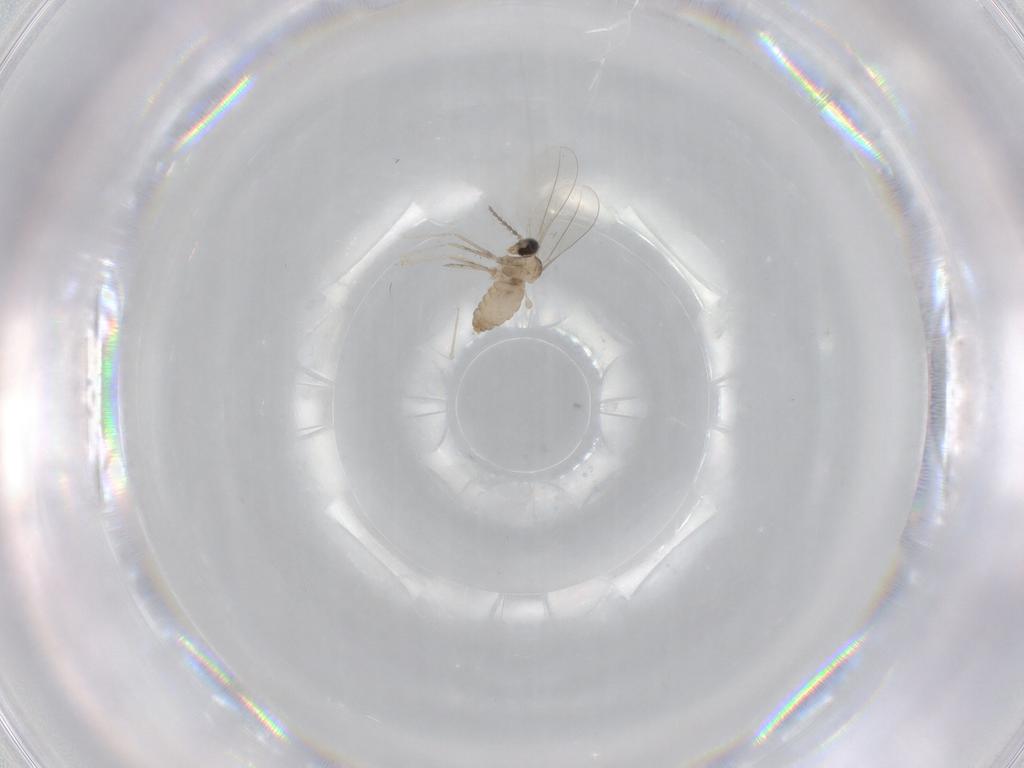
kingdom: Animalia
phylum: Arthropoda
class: Insecta
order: Diptera
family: Cecidomyiidae
